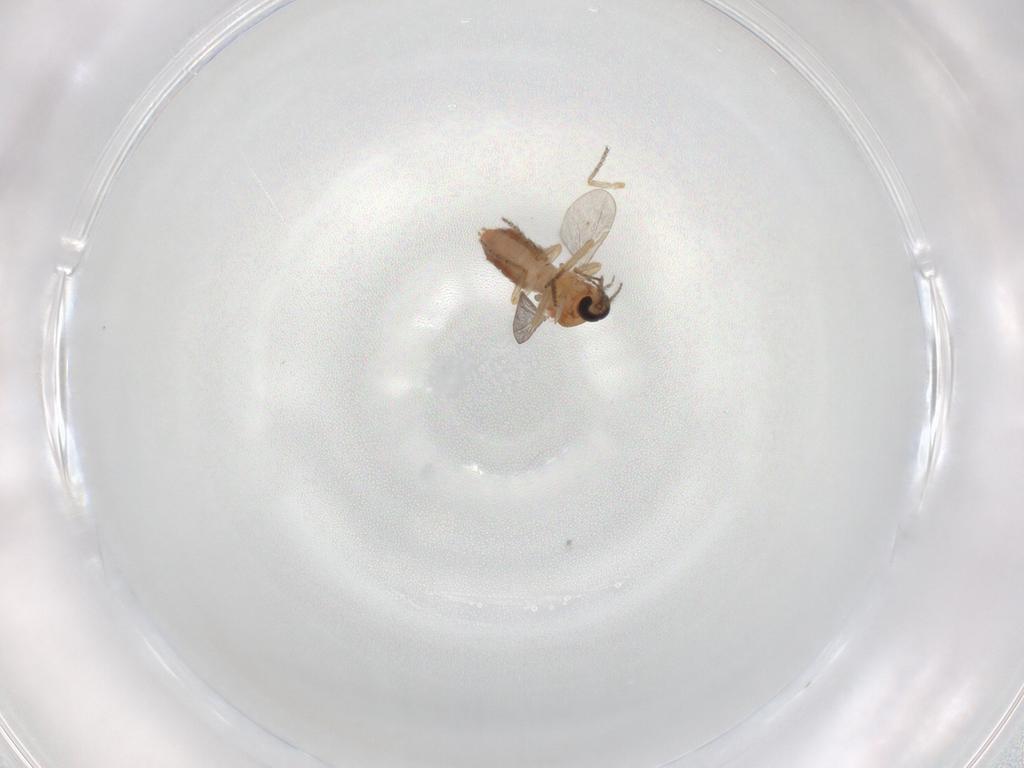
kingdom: Animalia
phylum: Arthropoda
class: Insecta
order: Diptera
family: Ceratopogonidae
